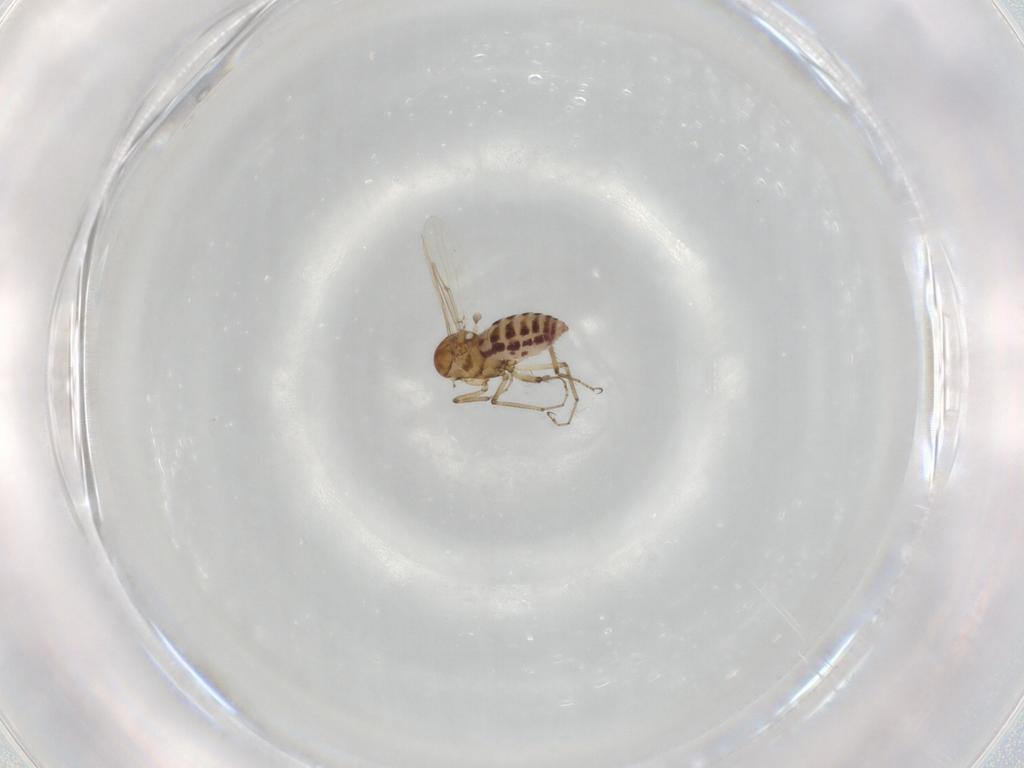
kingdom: Animalia
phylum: Arthropoda
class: Insecta
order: Diptera
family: Ceratopogonidae
